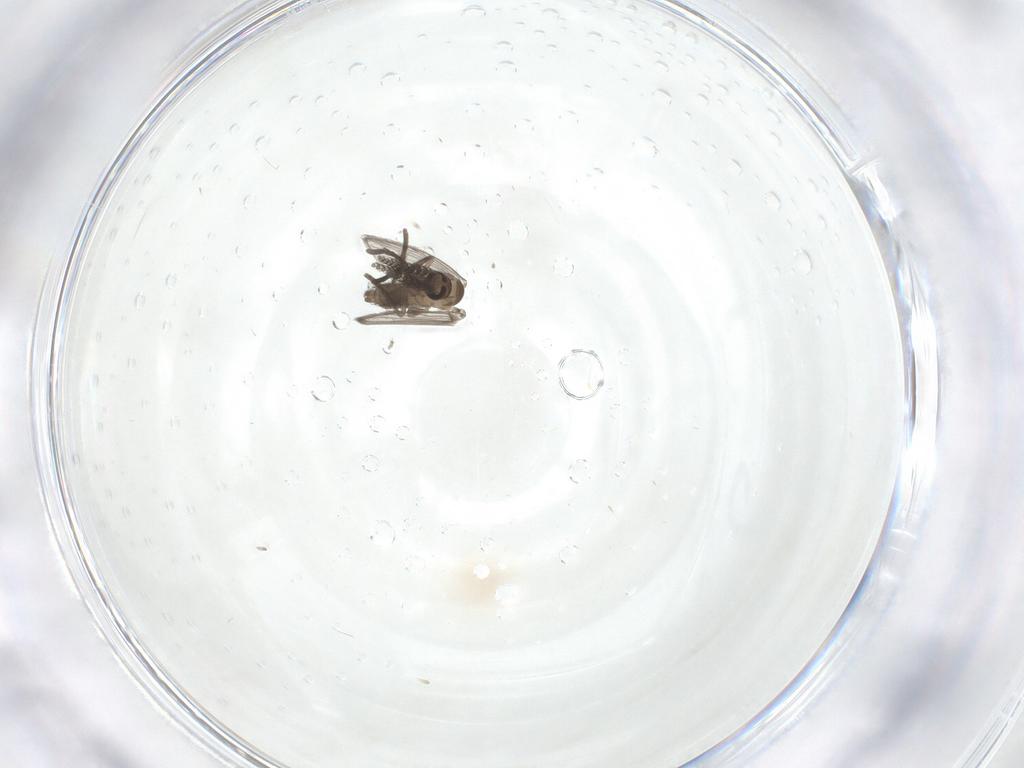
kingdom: Animalia
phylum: Arthropoda
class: Insecta
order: Diptera
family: Psychodidae
